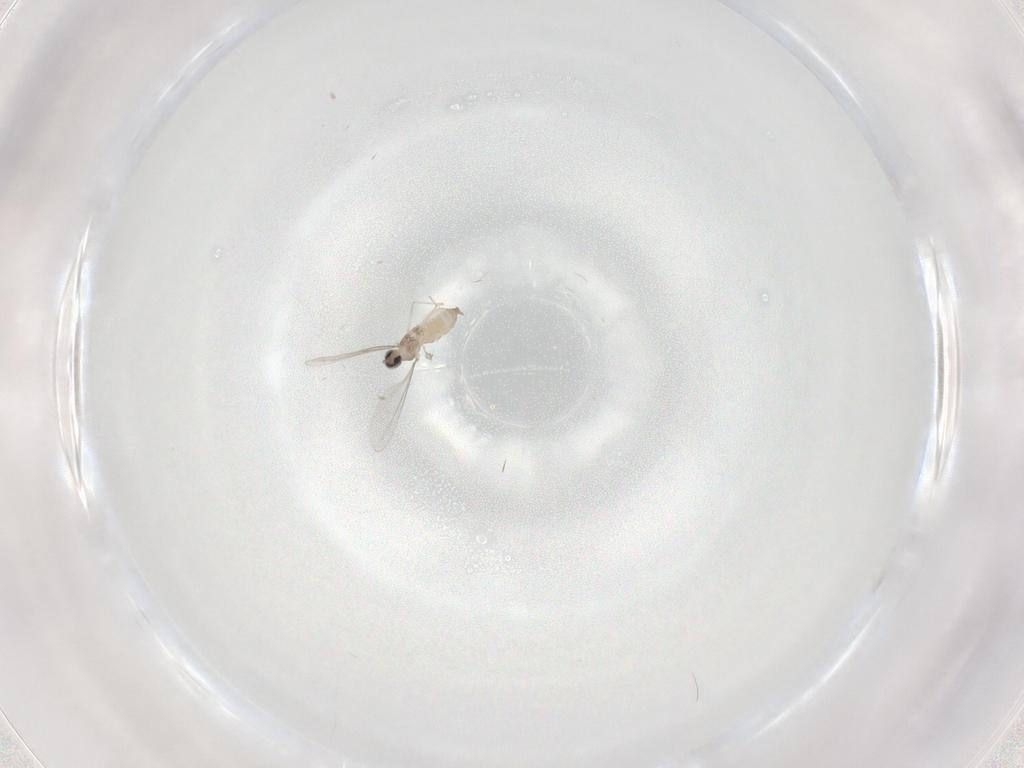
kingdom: Animalia
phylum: Arthropoda
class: Insecta
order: Diptera
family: Cecidomyiidae
